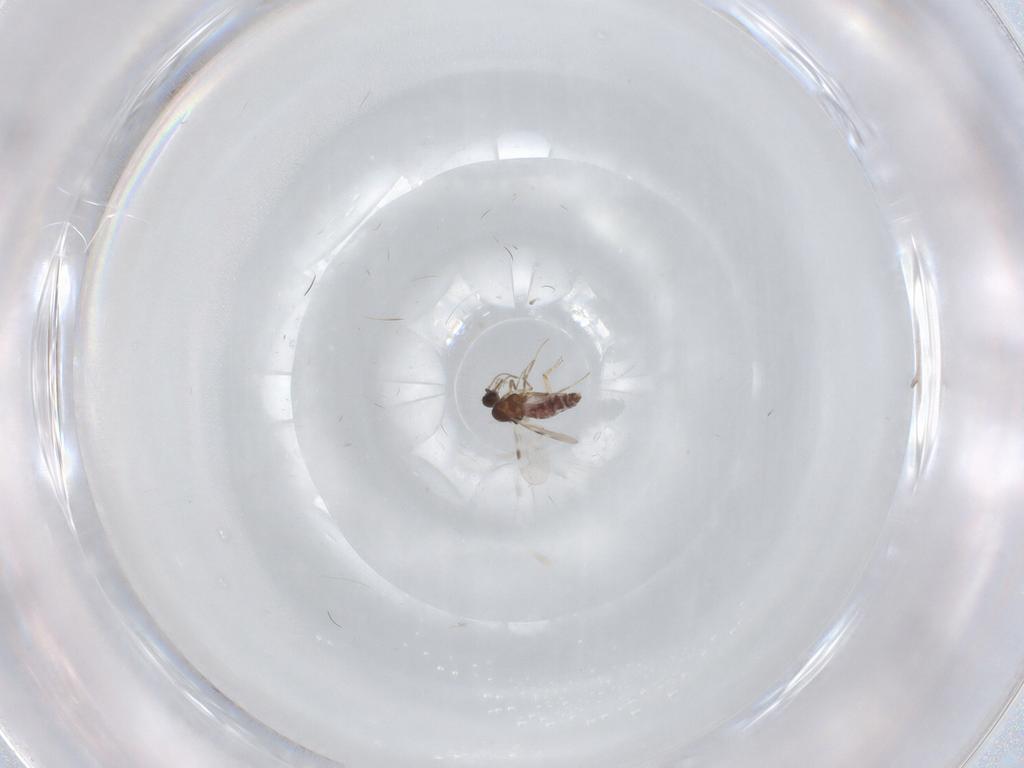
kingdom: Animalia
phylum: Arthropoda
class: Insecta
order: Diptera
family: Phoridae
